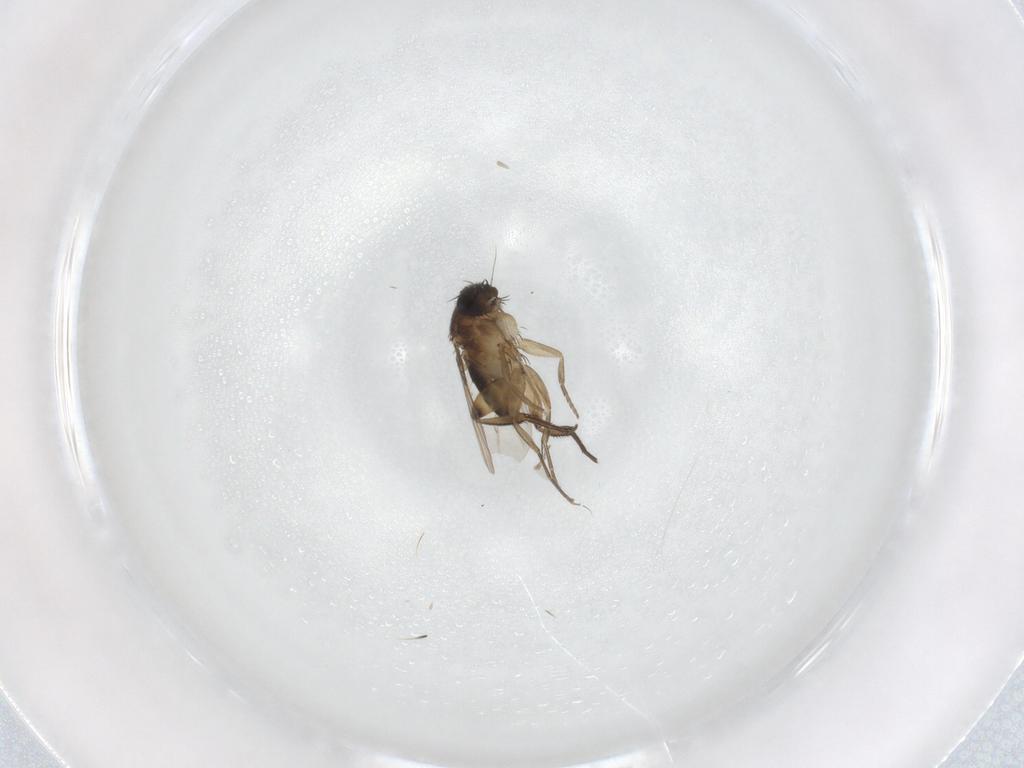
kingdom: Animalia
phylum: Arthropoda
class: Insecta
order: Diptera
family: Phoridae
